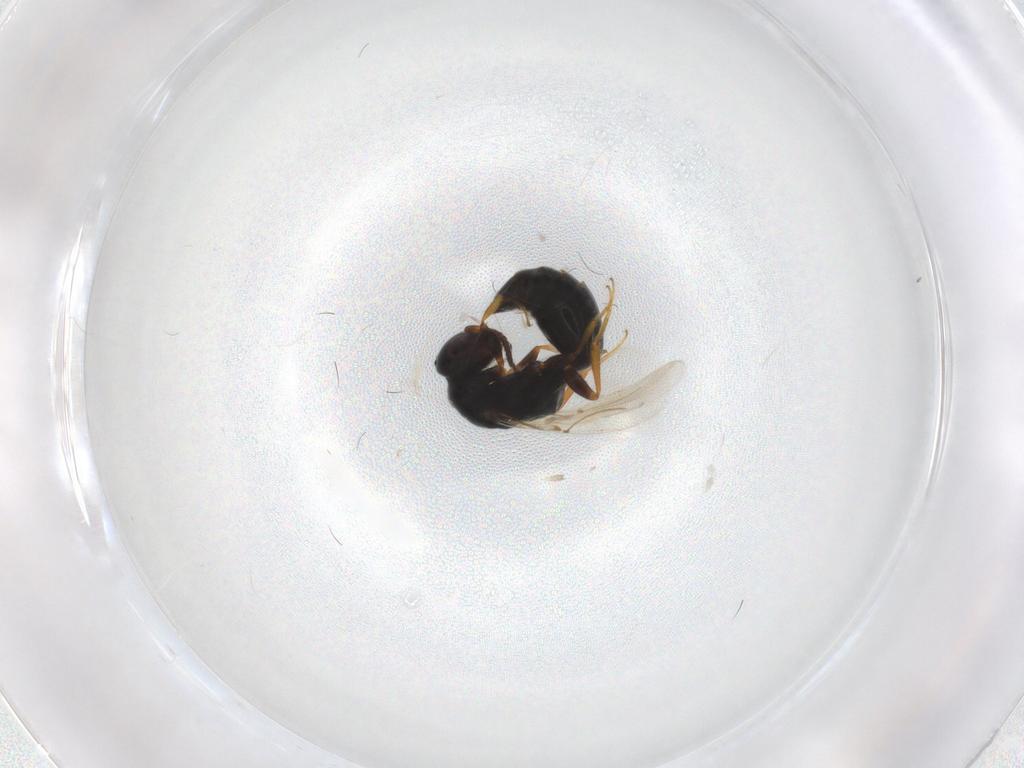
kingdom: Animalia
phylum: Arthropoda
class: Insecta
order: Hymenoptera
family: Bethylidae
